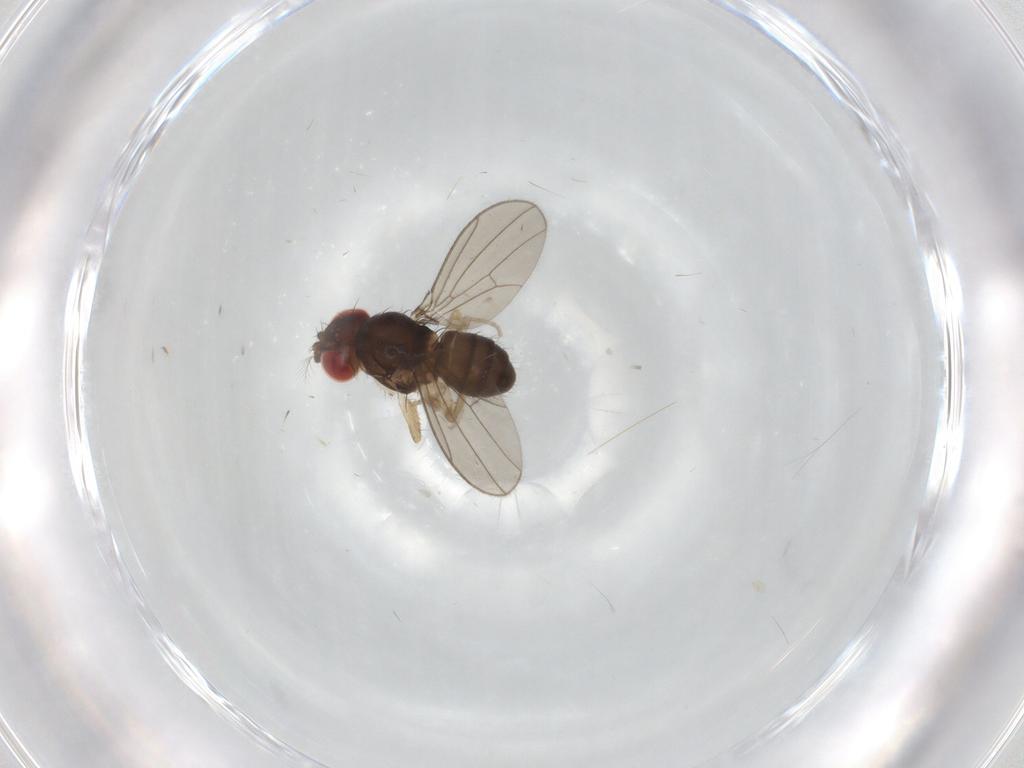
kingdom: Animalia
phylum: Arthropoda
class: Insecta
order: Diptera
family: Drosophilidae
